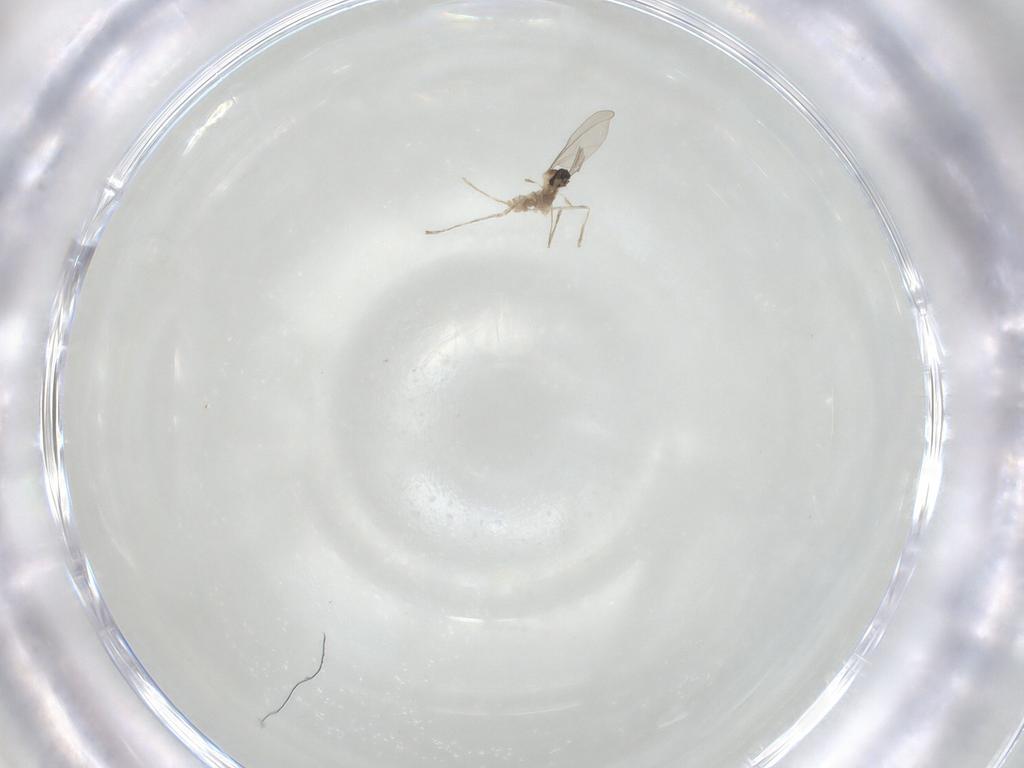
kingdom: Animalia
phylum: Arthropoda
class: Insecta
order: Diptera
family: Cecidomyiidae
